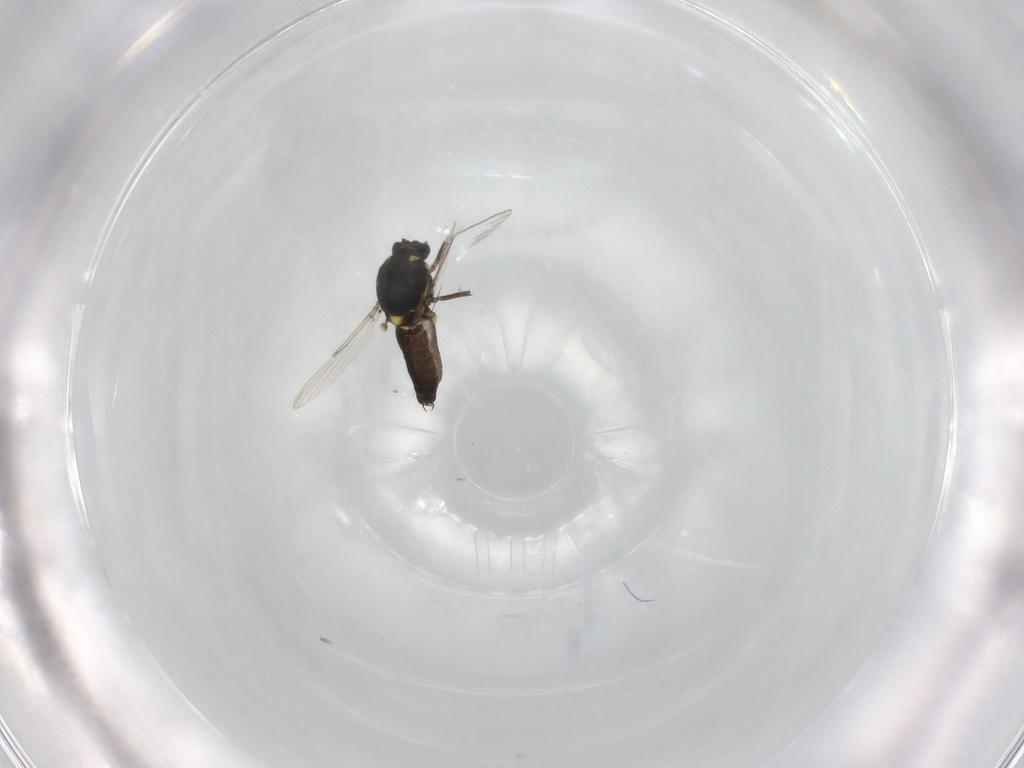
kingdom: Animalia
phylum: Arthropoda
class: Insecta
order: Diptera
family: Ceratopogonidae
